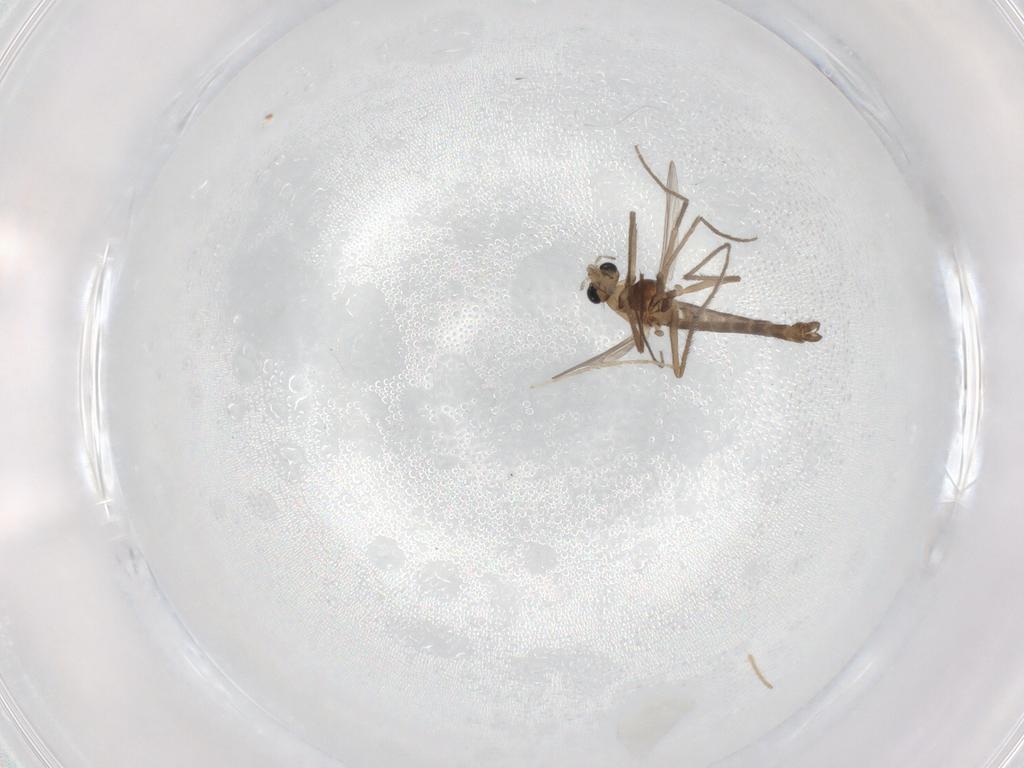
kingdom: Animalia
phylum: Arthropoda
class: Insecta
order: Diptera
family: Chironomidae
